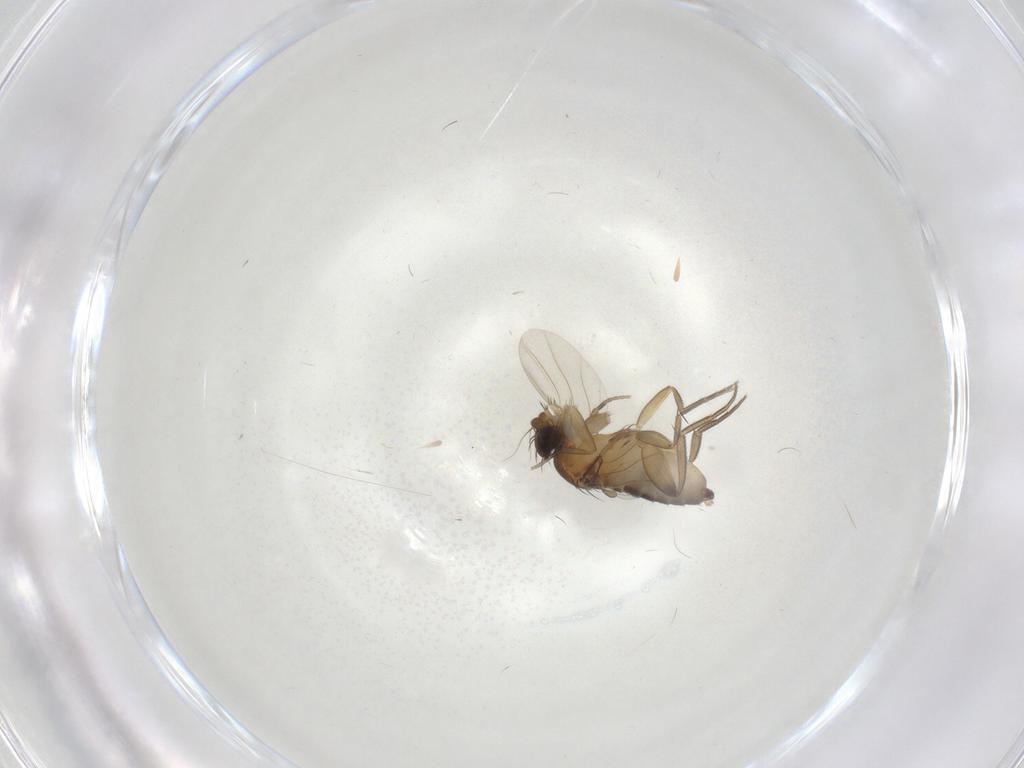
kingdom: Animalia
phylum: Arthropoda
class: Insecta
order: Diptera
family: Phoridae
